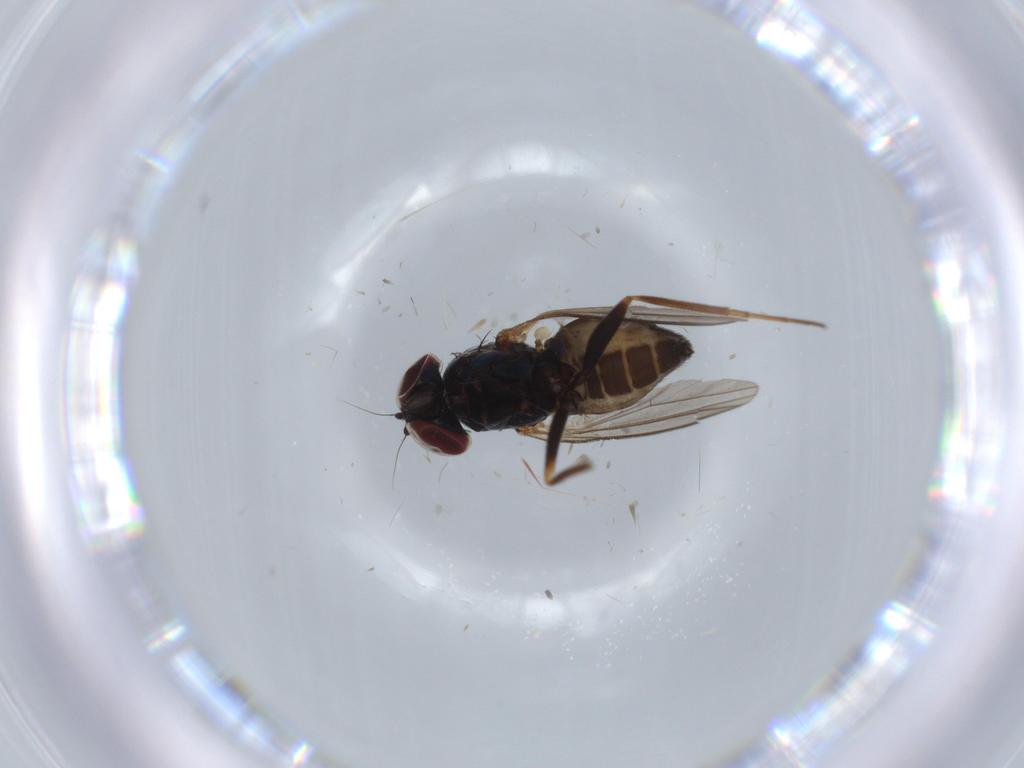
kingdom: Animalia
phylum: Arthropoda
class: Insecta
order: Diptera
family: Dolichopodidae
